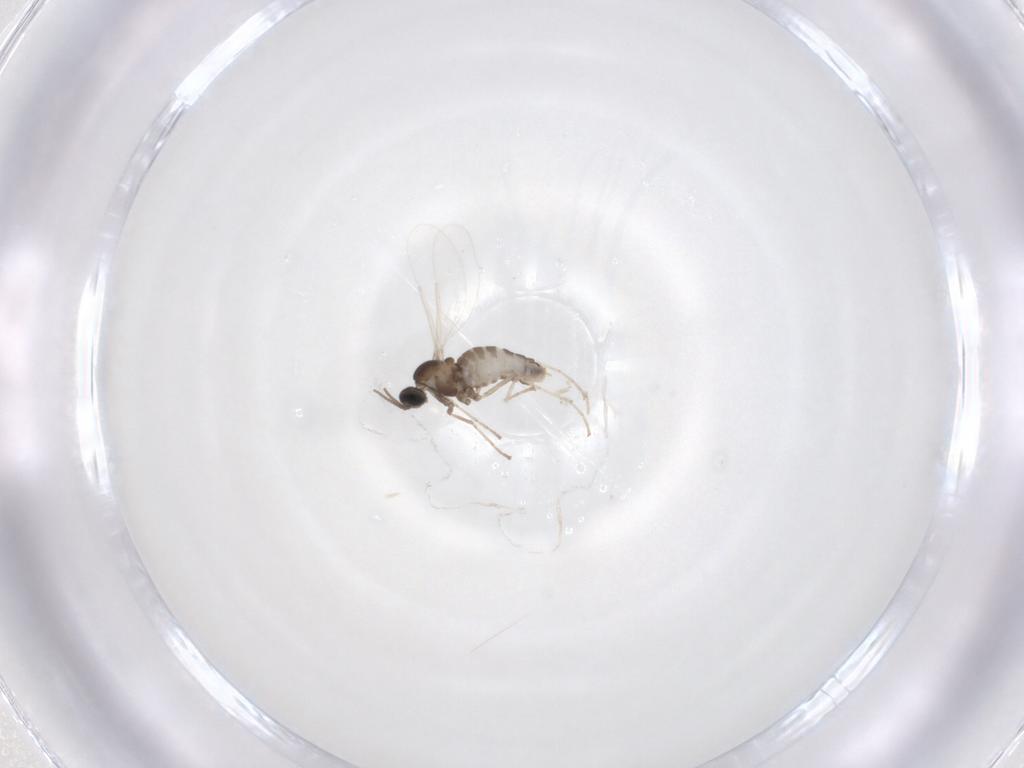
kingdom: Animalia
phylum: Arthropoda
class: Insecta
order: Diptera
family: Cecidomyiidae
